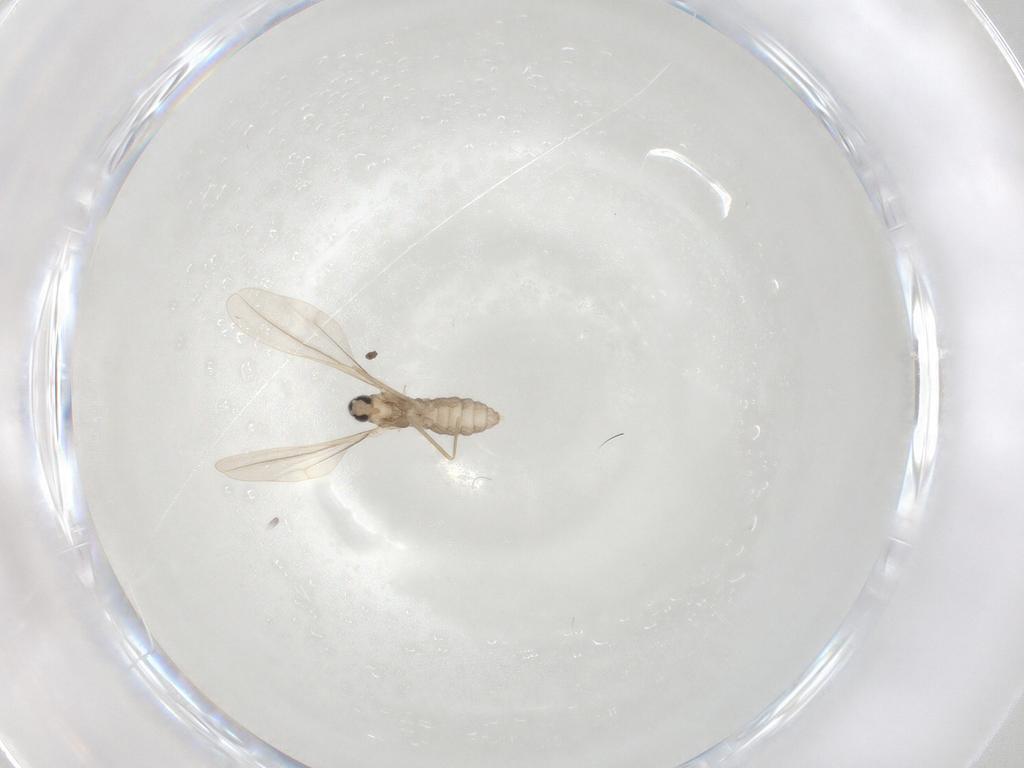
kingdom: Animalia
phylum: Arthropoda
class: Insecta
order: Diptera
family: Cecidomyiidae
